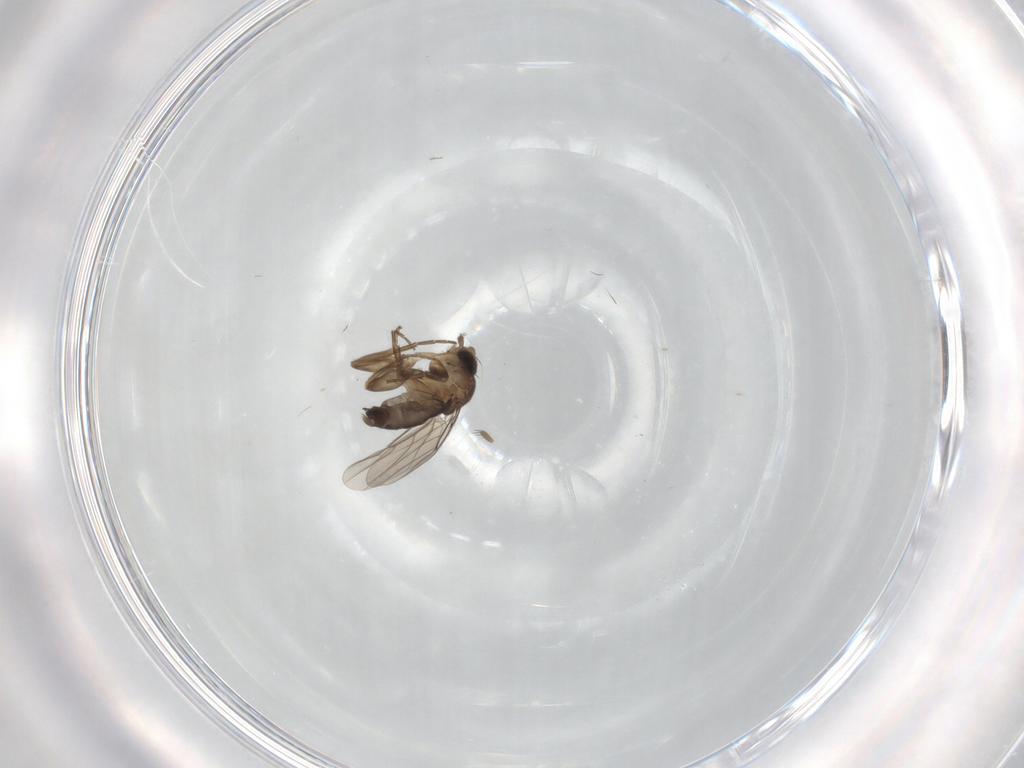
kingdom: Animalia
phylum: Arthropoda
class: Insecta
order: Diptera
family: Phoridae
